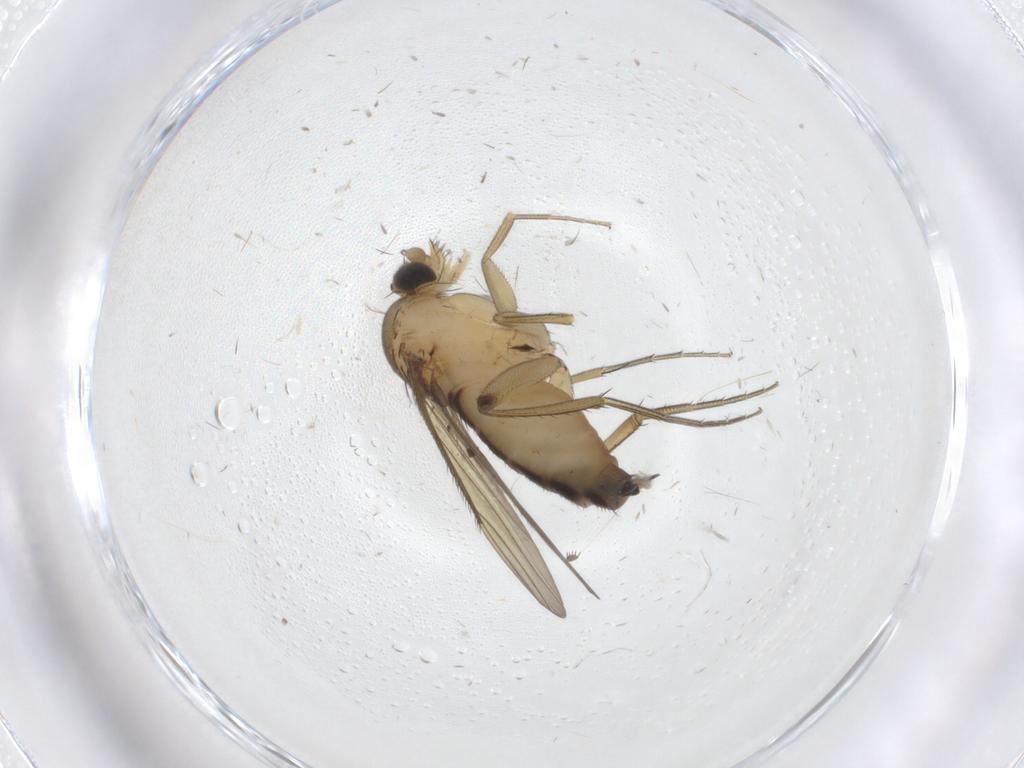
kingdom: Animalia
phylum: Arthropoda
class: Insecta
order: Diptera
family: Phoridae
